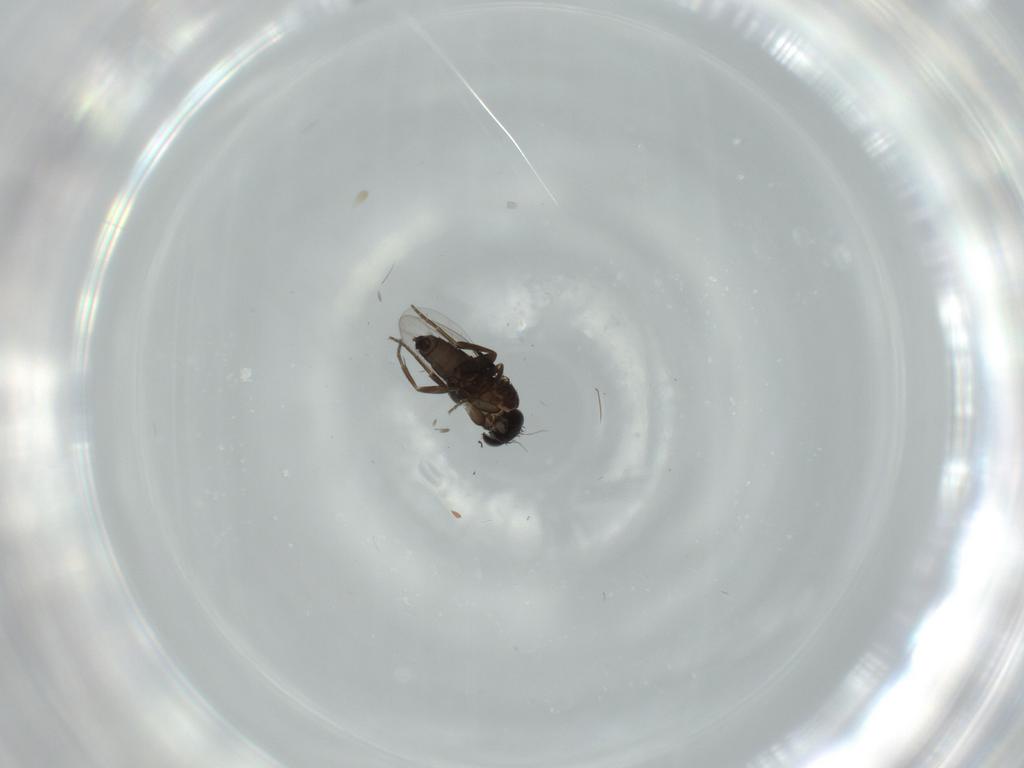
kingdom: Animalia
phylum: Arthropoda
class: Insecta
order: Diptera
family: Phoridae
